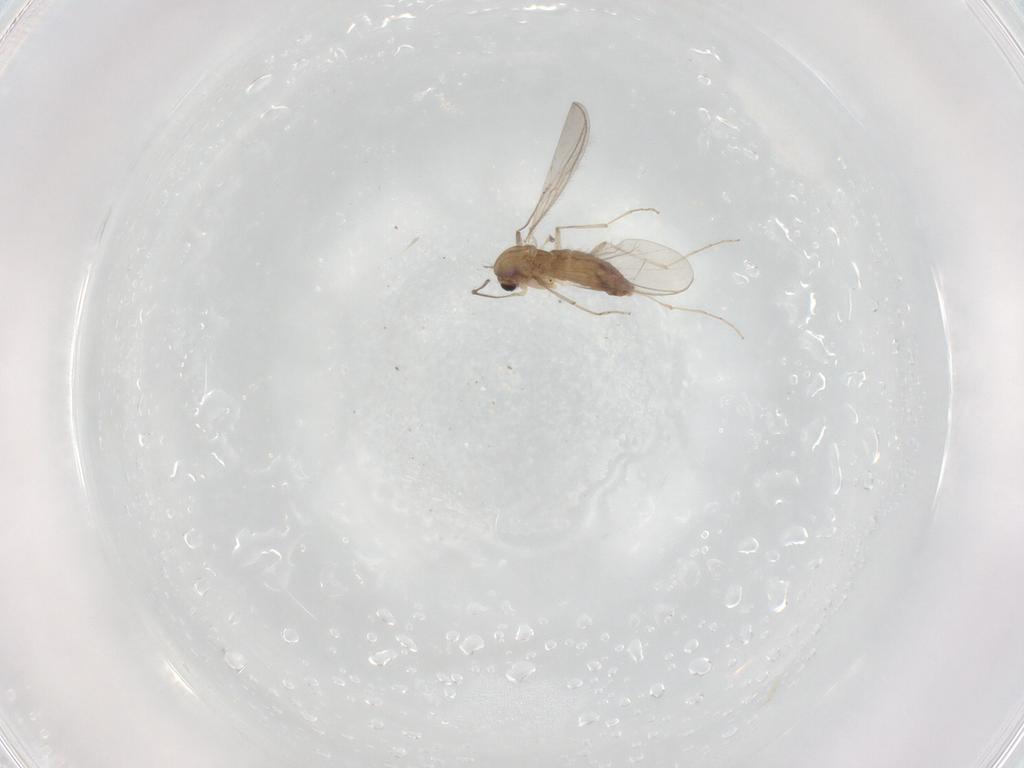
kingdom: Animalia
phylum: Arthropoda
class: Insecta
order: Diptera
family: Chironomidae
